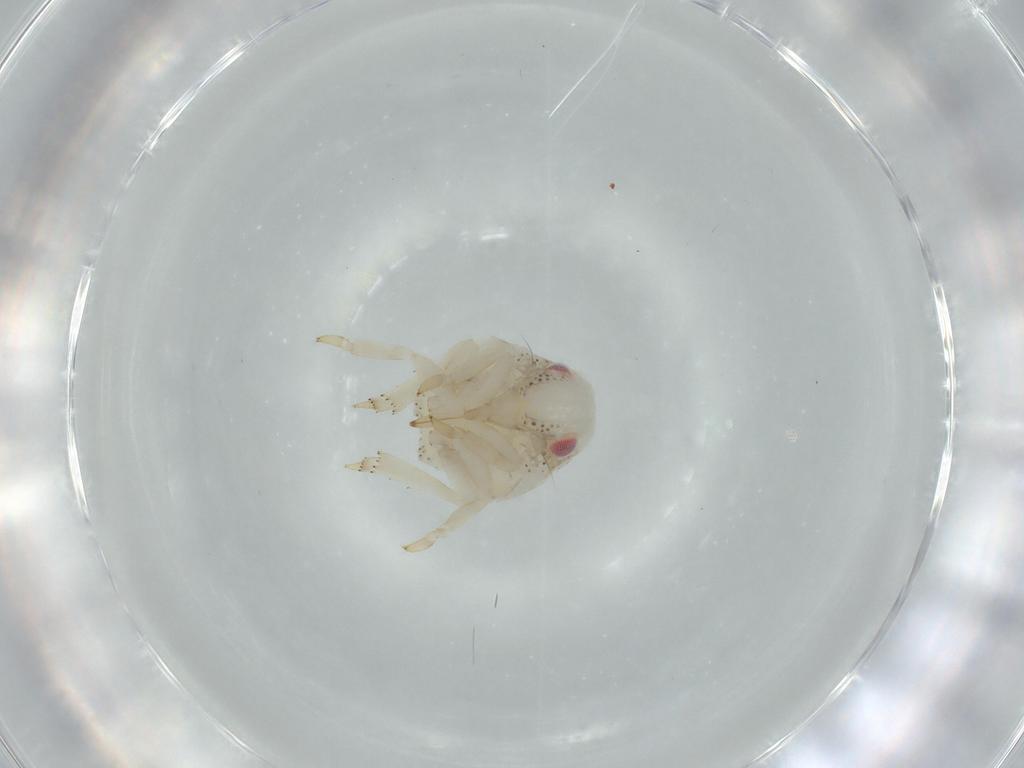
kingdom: Animalia
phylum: Arthropoda
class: Insecta
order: Hemiptera
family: Acanaloniidae
